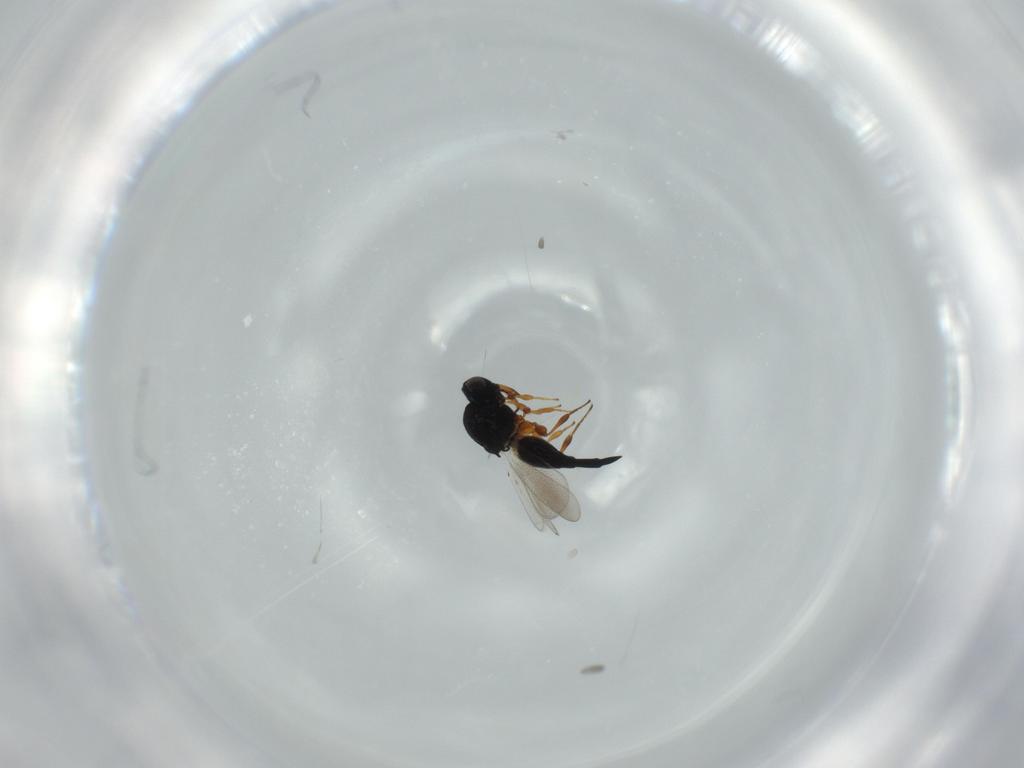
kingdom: Animalia
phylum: Arthropoda
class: Insecta
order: Hymenoptera
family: Platygastridae
